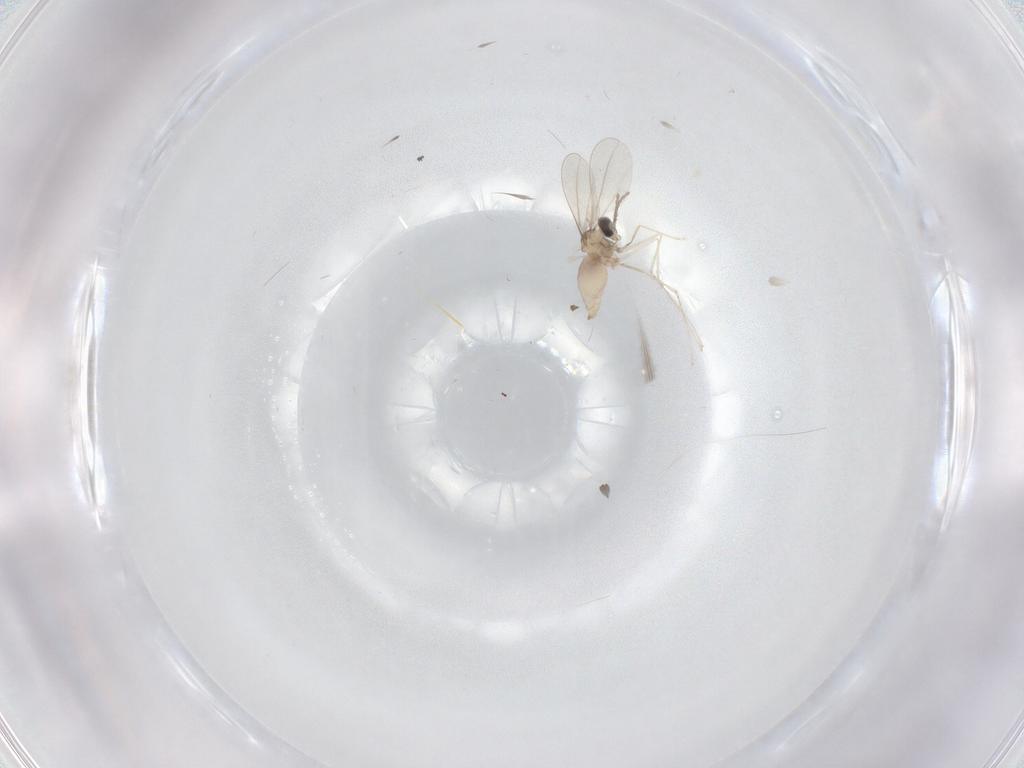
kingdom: Animalia
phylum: Arthropoda
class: Insecta
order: Diptera
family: Cecidomyiidae
